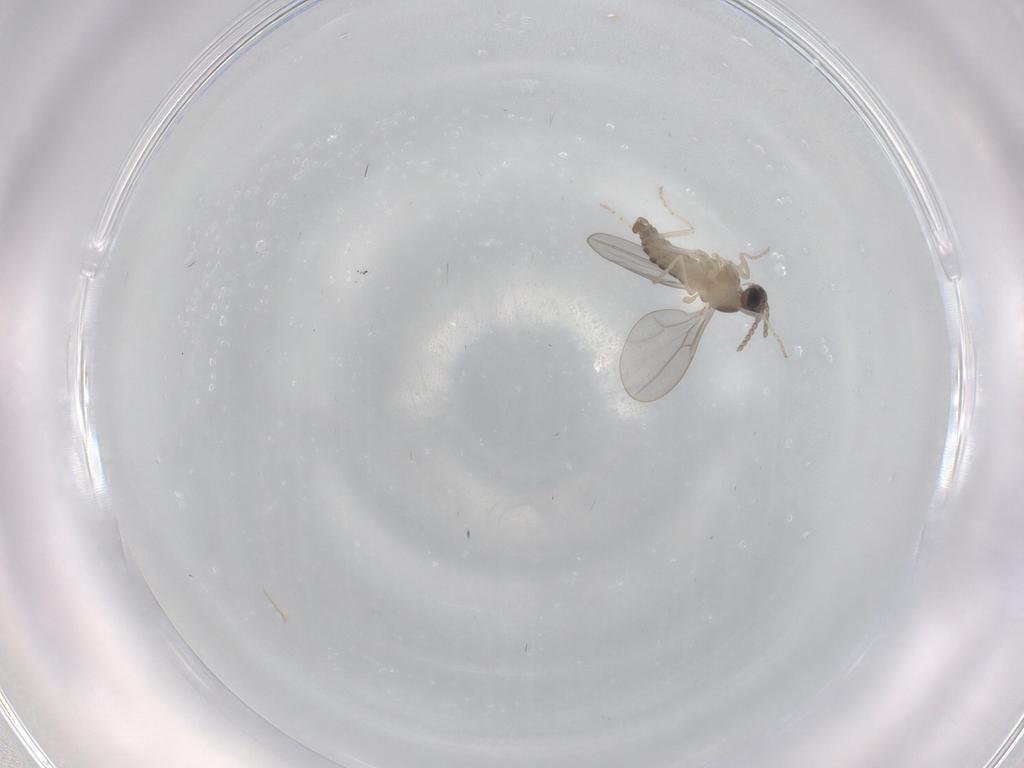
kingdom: Animalia
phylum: Arthropoda
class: Insecta
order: Diptera
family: Cecidomyiidae
